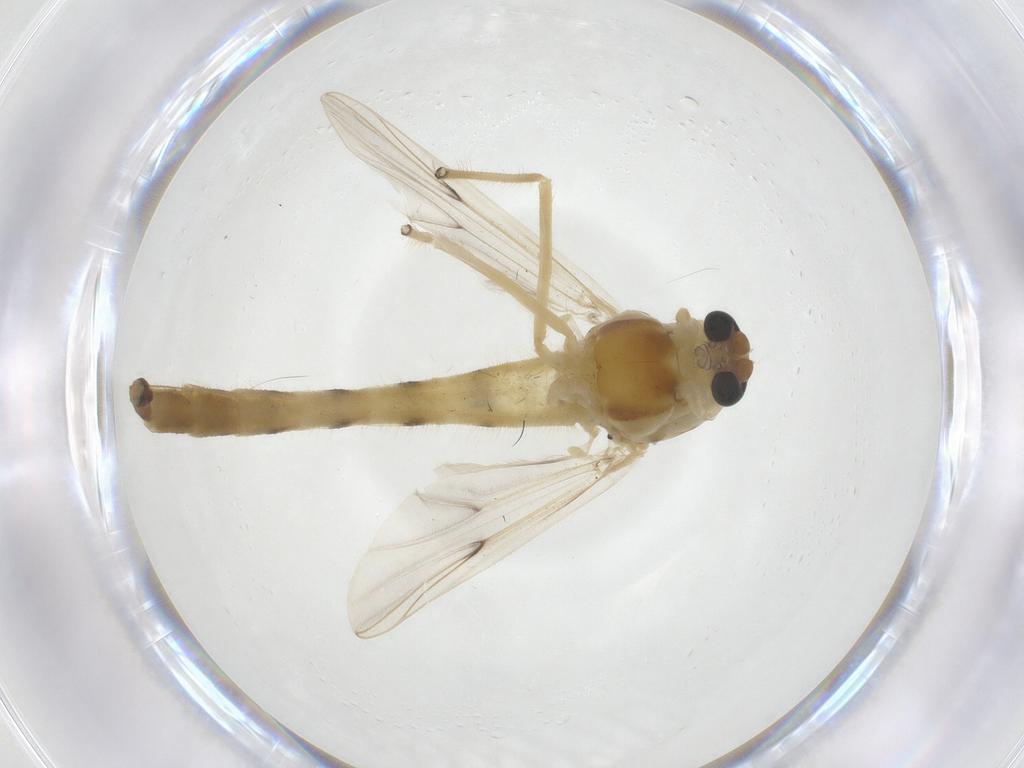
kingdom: Animalia
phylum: Arthropoda
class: Insecta
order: Diptera
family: Chironomidae
